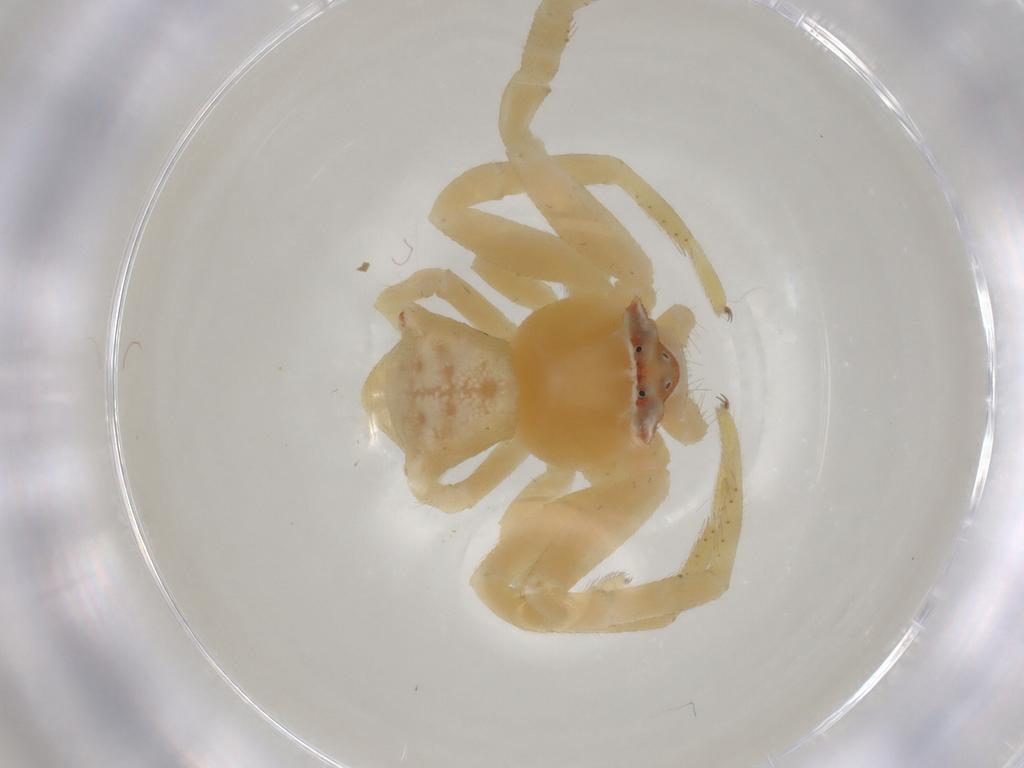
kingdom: Animalia
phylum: Arthropoda
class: Arachnida
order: Araneae
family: Thomisidae
